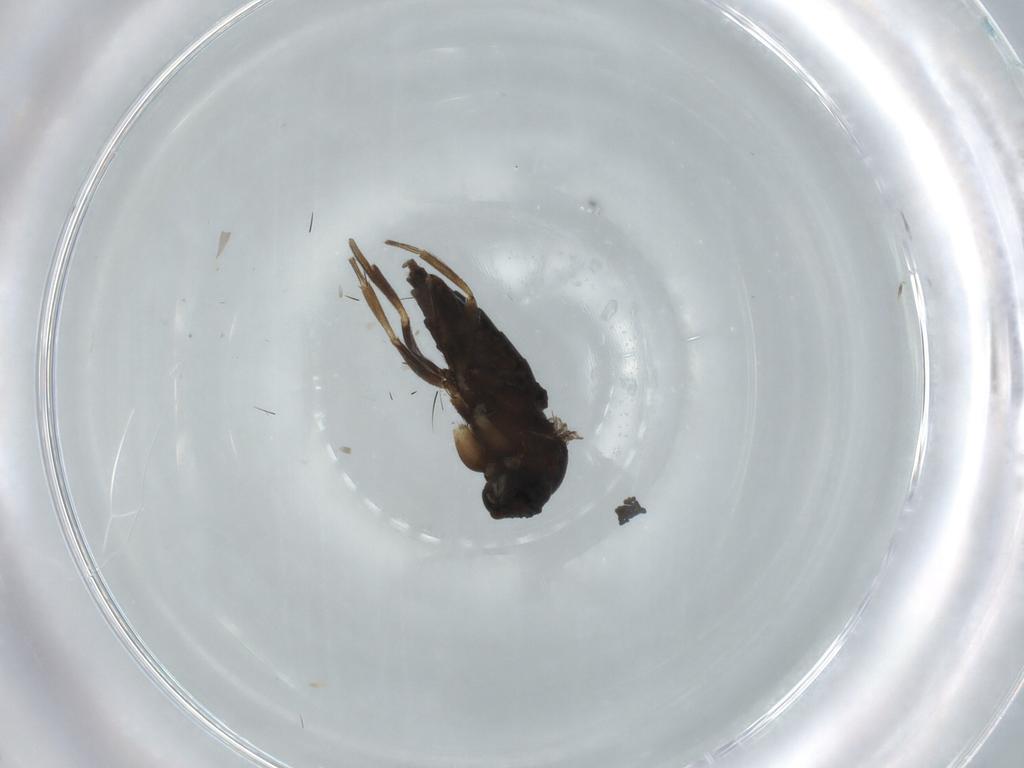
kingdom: Animalia
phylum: Arthropoda
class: Insecta
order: Diptera
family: Phoridae
